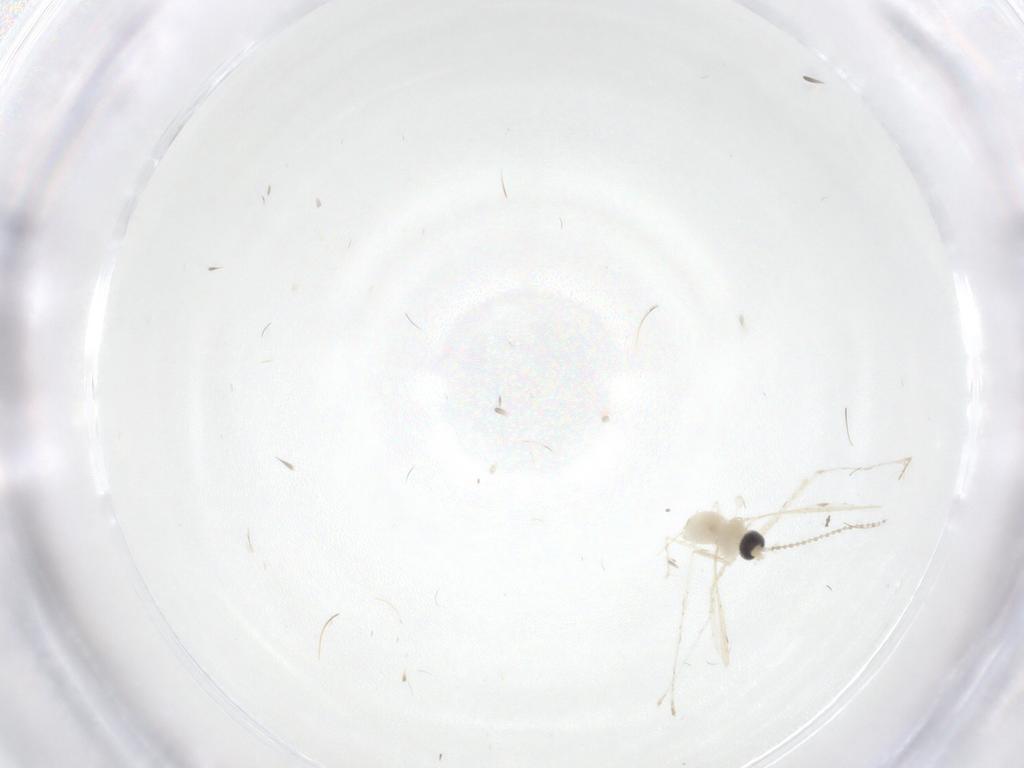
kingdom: Animalia
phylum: Arthropoda
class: Insecta
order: Diptera
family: Cecidomyiidae
